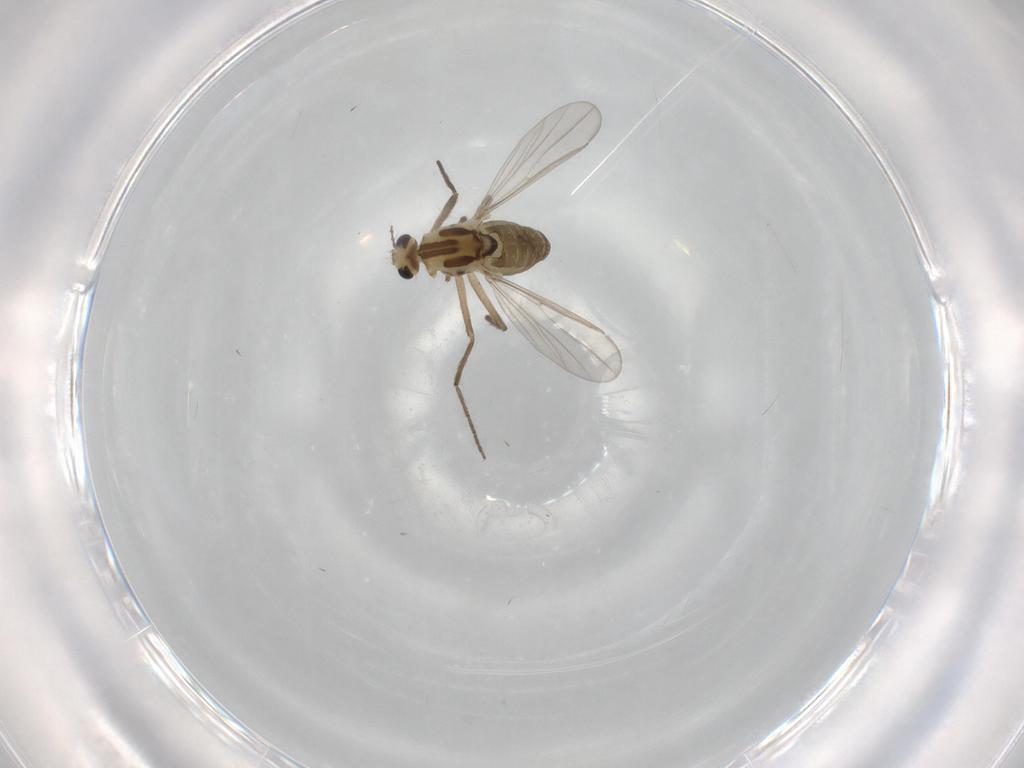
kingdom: Animalia
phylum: Arthropoda
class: Insecta
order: Diptera
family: Chironomidae
